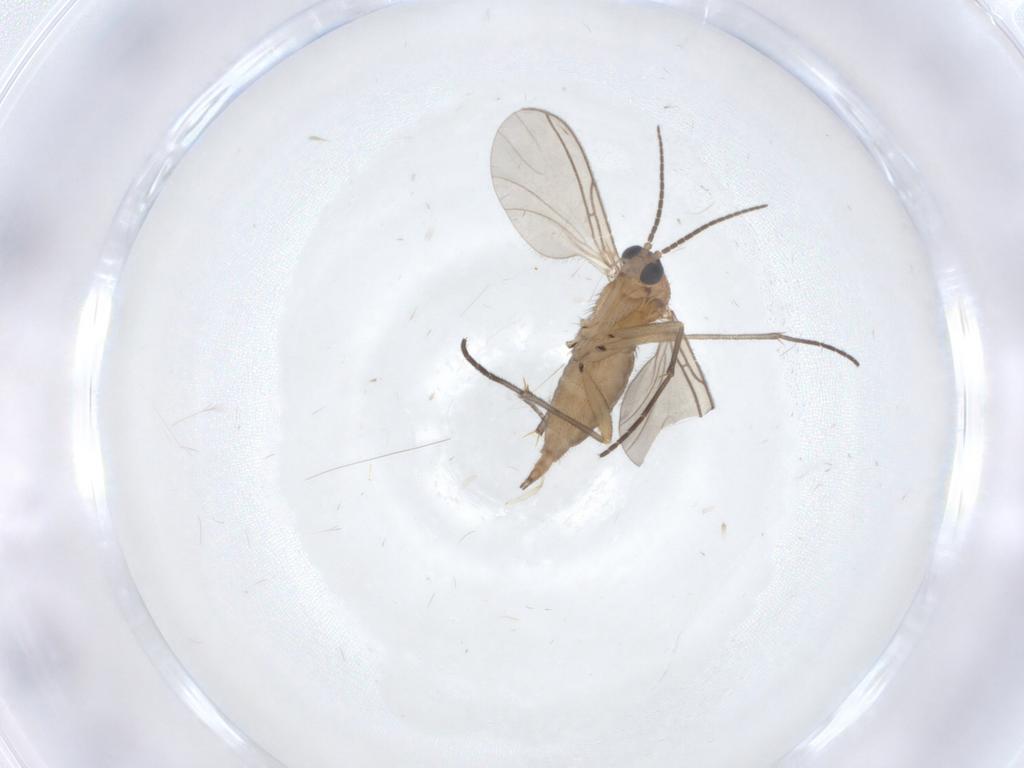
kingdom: Animalia
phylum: Arthropoda
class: Insecta
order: Diptera
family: Sciaridae
